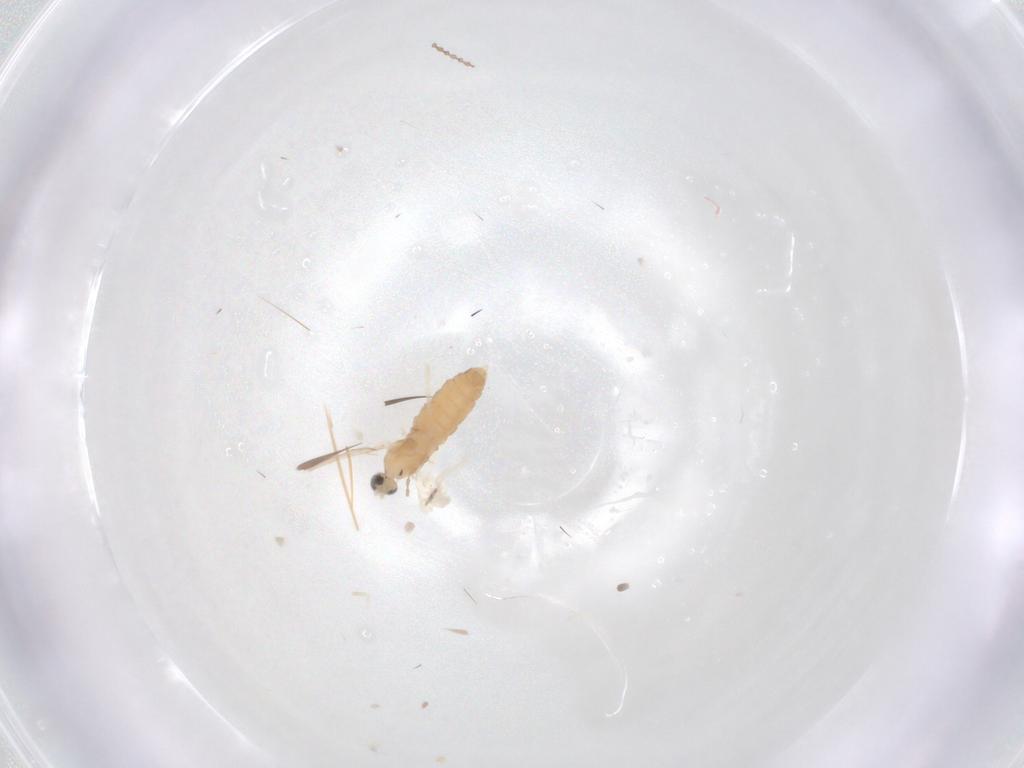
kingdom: Animalia
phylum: Arthropoda
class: Insecta
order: Diptera
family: Cecidomyiidae
